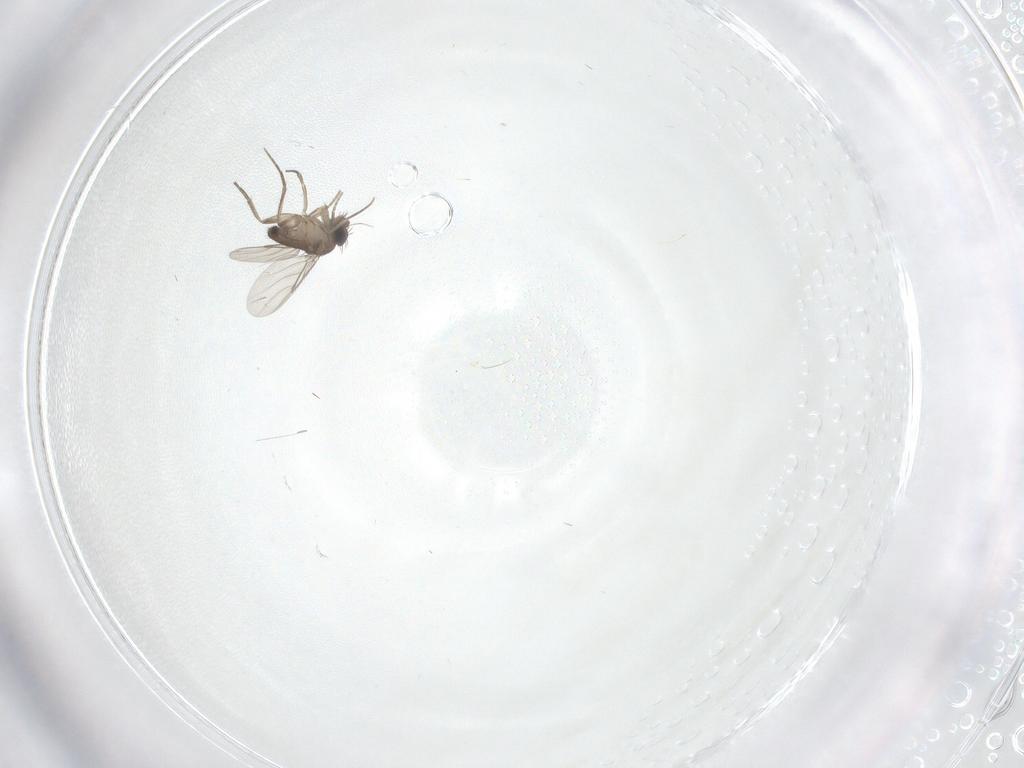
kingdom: Animalia
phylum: Arthropoda
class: Insecta
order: Diptera
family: Phoridae
